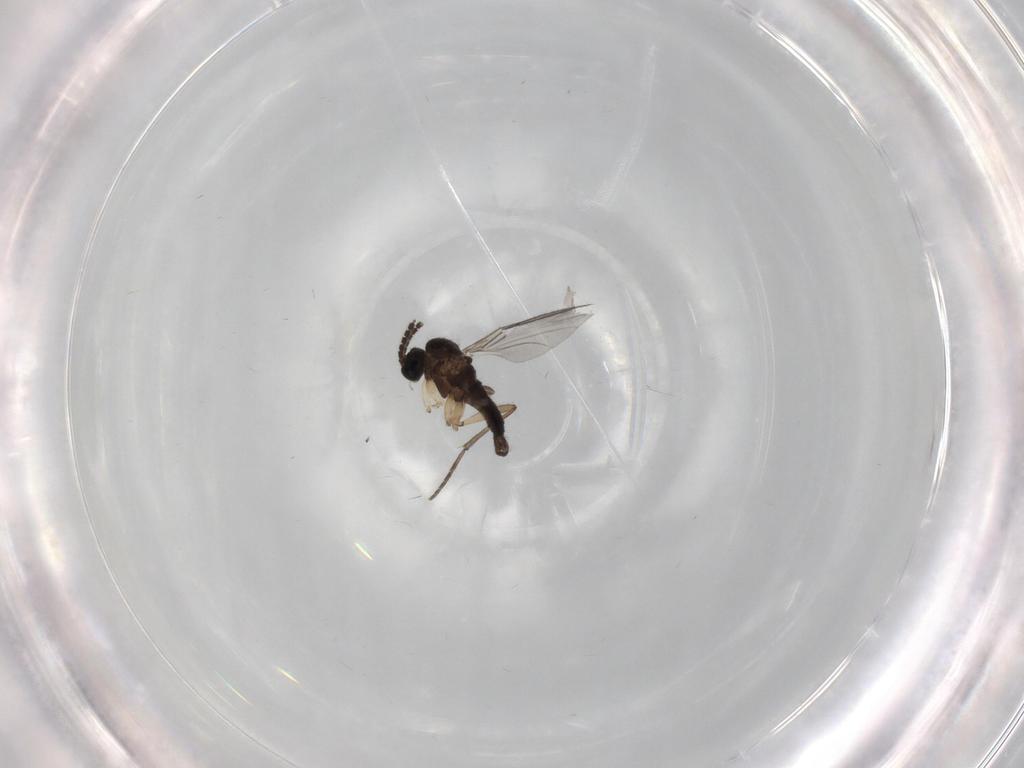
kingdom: Animalia
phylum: Arthropoda
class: Insecta
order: Diptera
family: Sciaridae
